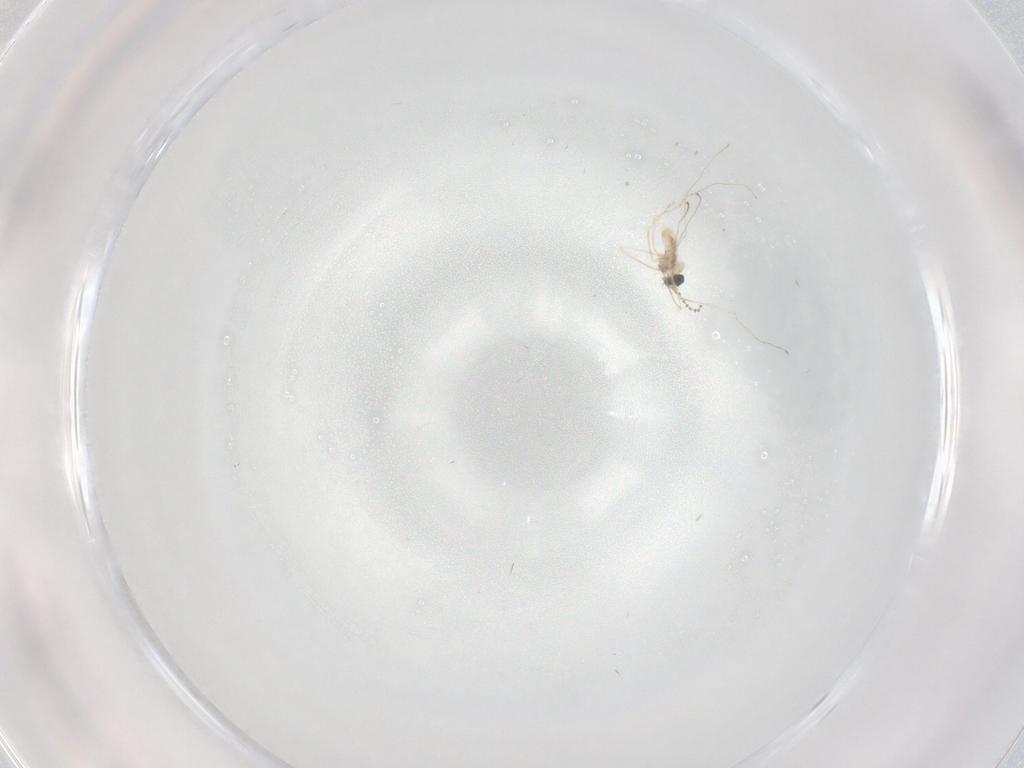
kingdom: Animalia
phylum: Arthropoda
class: Insecta
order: Diptera
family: Cecidomyiidae
